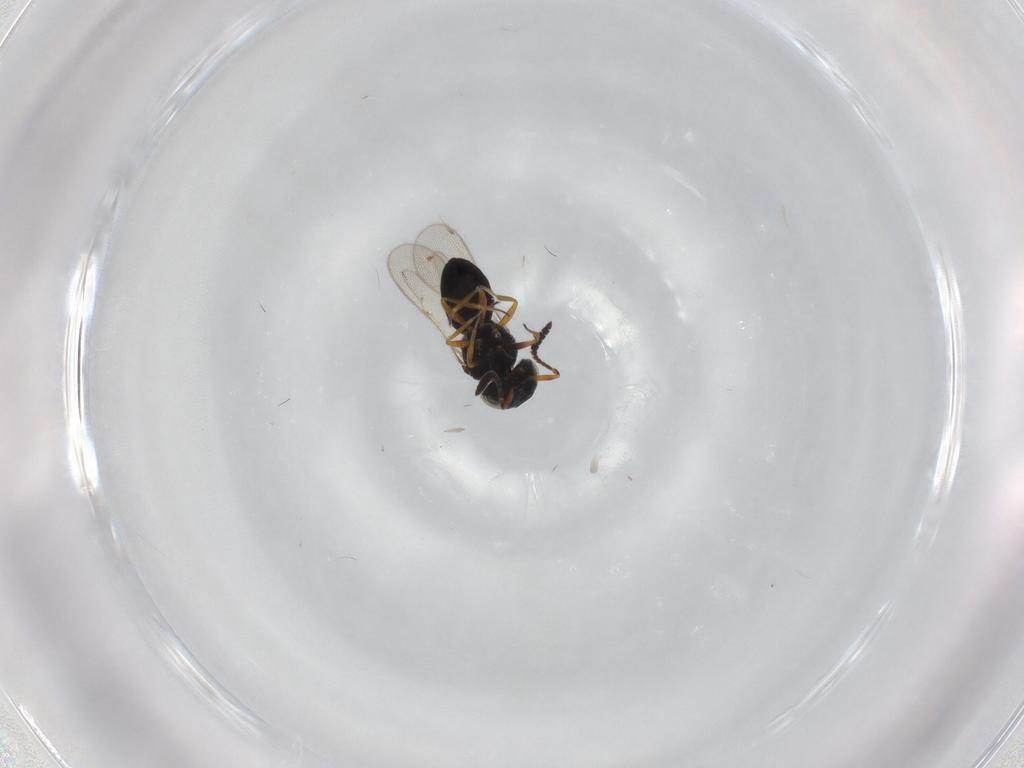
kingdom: Animalia
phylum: Arthropoda
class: Insecta
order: Hymenoptera
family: Scelionidae
